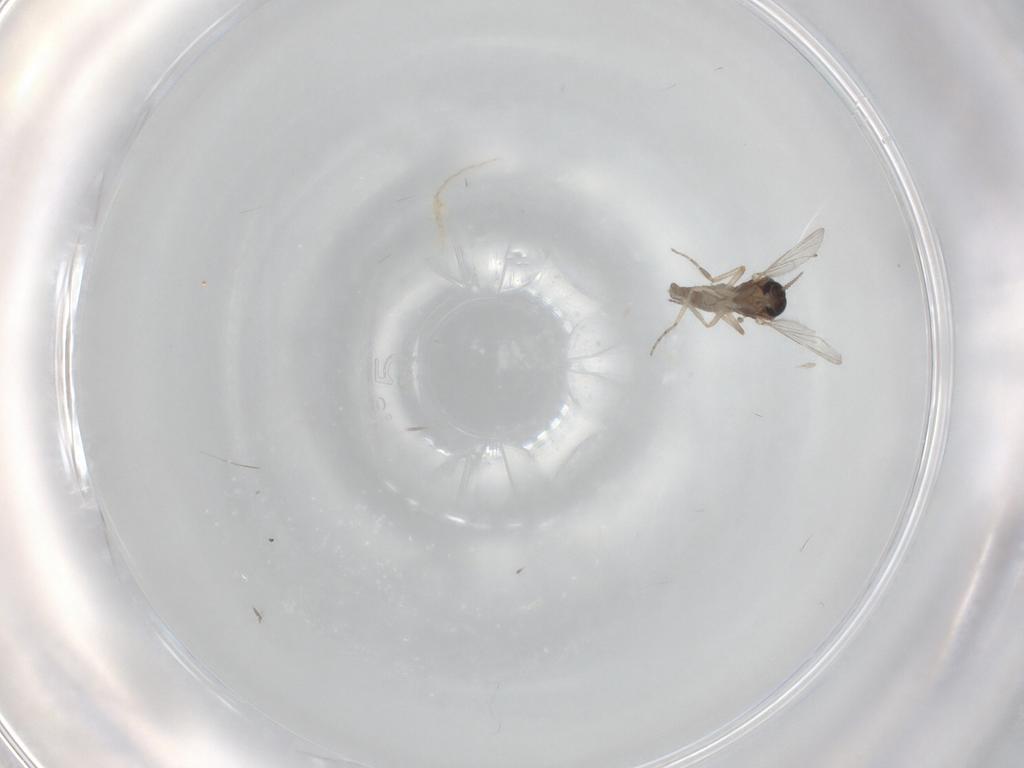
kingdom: Animalia
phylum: Arthropoda
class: Insecta
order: Diptera
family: Ceratopogonidae
